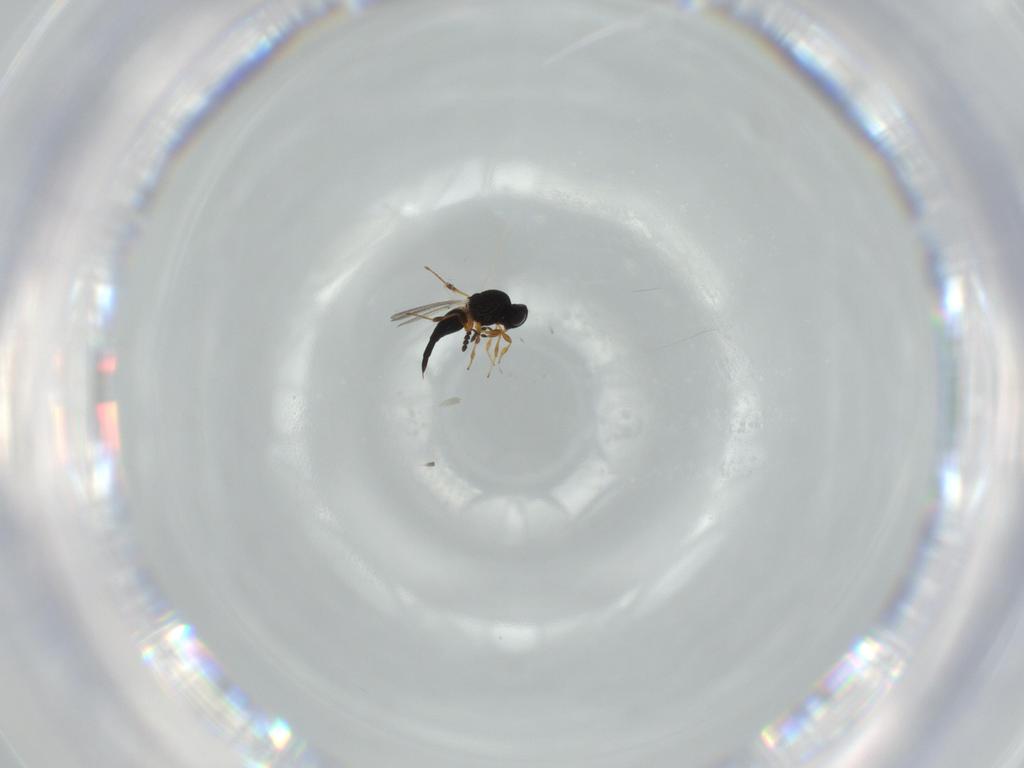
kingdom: Animalia
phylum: Arthropoda
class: Insecta
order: Hymenoptera
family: Platygastridae
